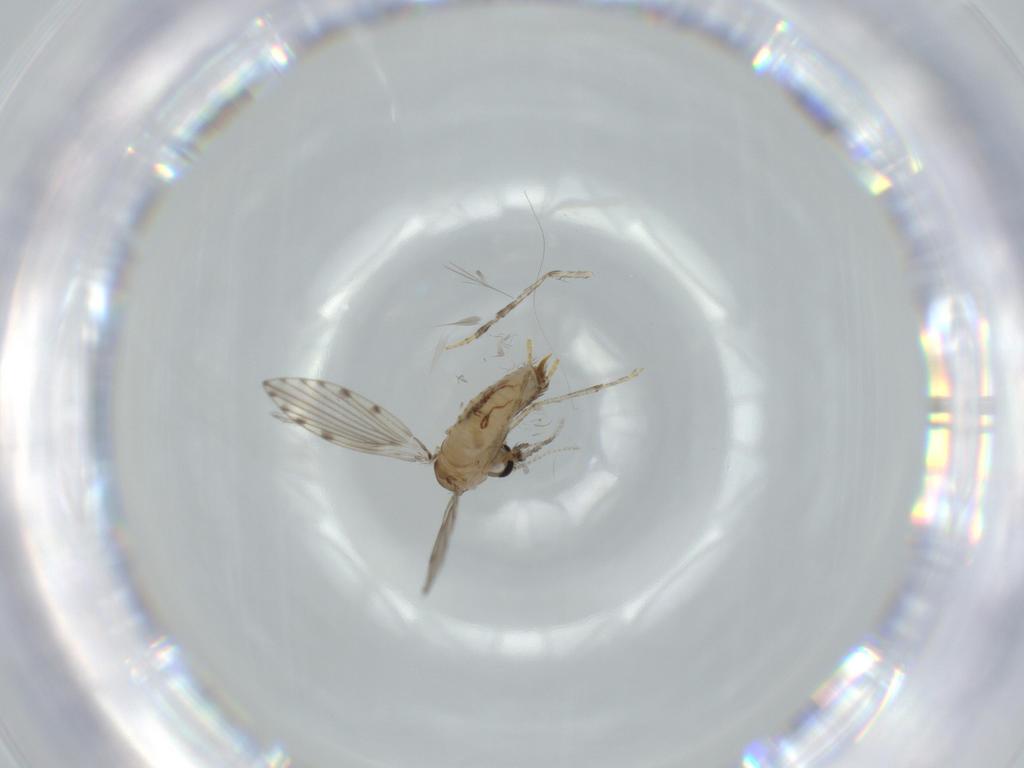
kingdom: Animalia
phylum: Arthropoda
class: Insecta
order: Diptera
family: Psychodidae
